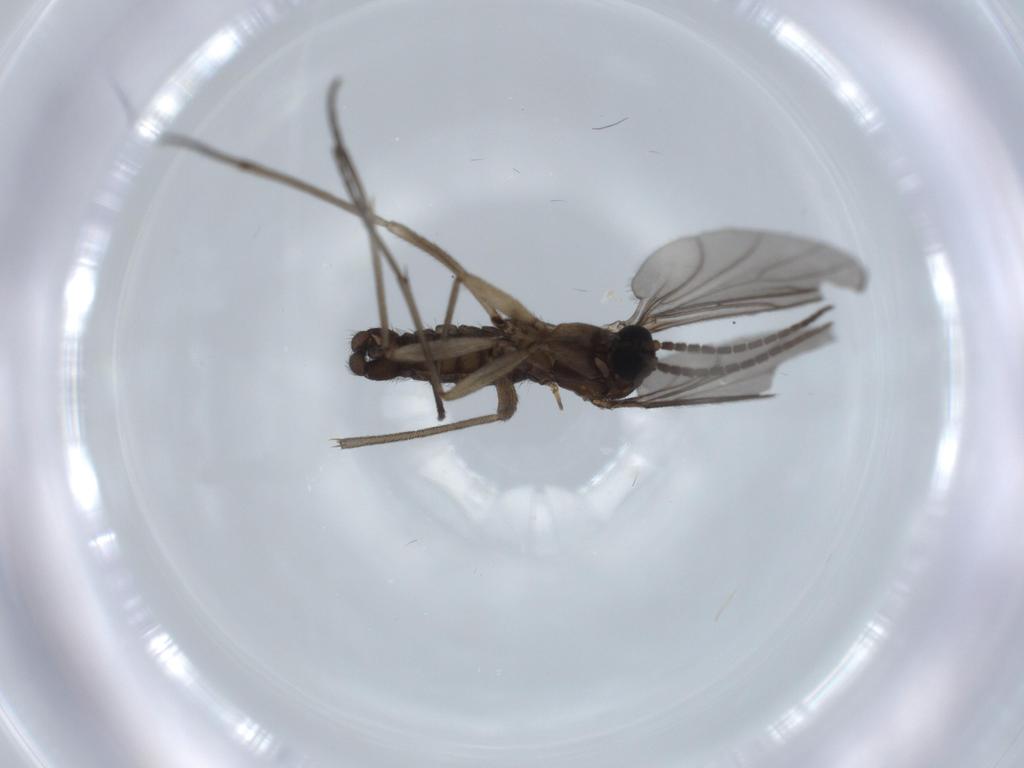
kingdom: Animalia
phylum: Arthropoda
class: Insecta
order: Diptera
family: Sciaridae
